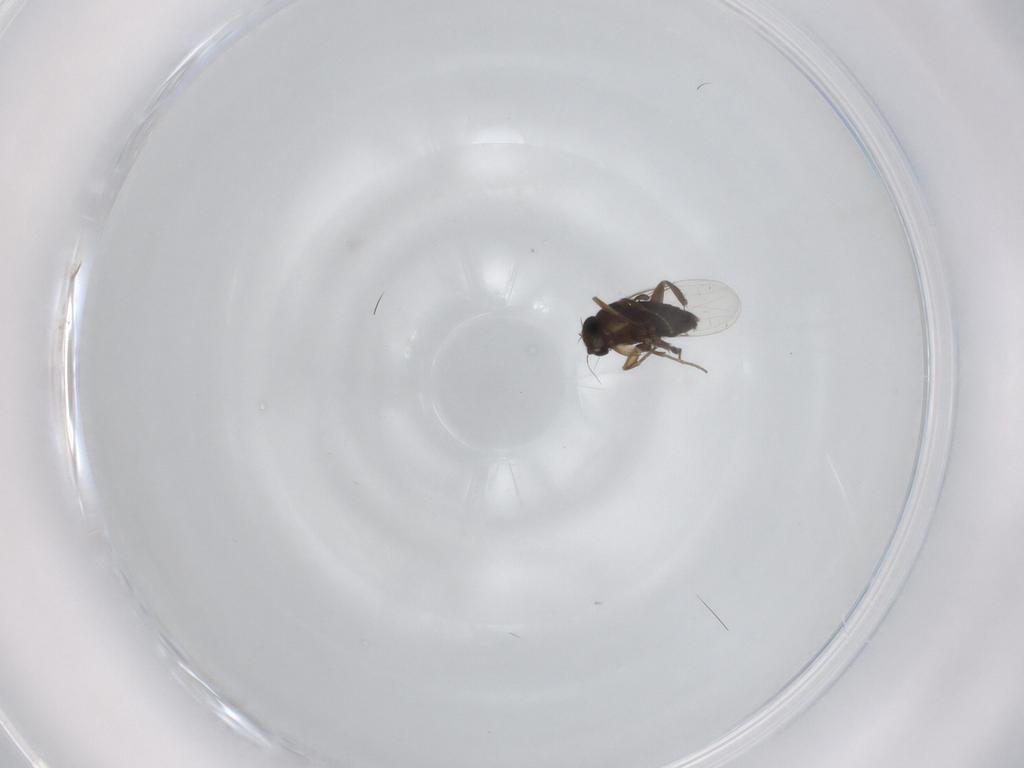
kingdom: Animalia
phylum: Arthropoda
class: Insecta
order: Diptera
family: Phoridae
